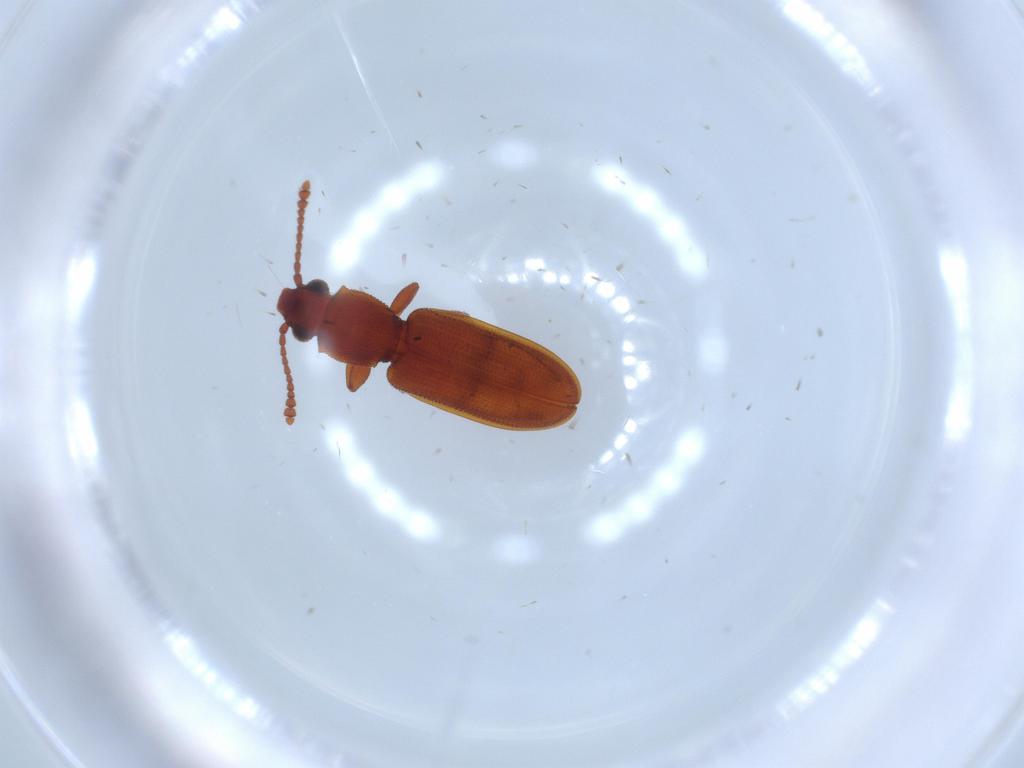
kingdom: Animalia
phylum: Arthropoda
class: Insecta
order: Coleoptera
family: Silvanidae
